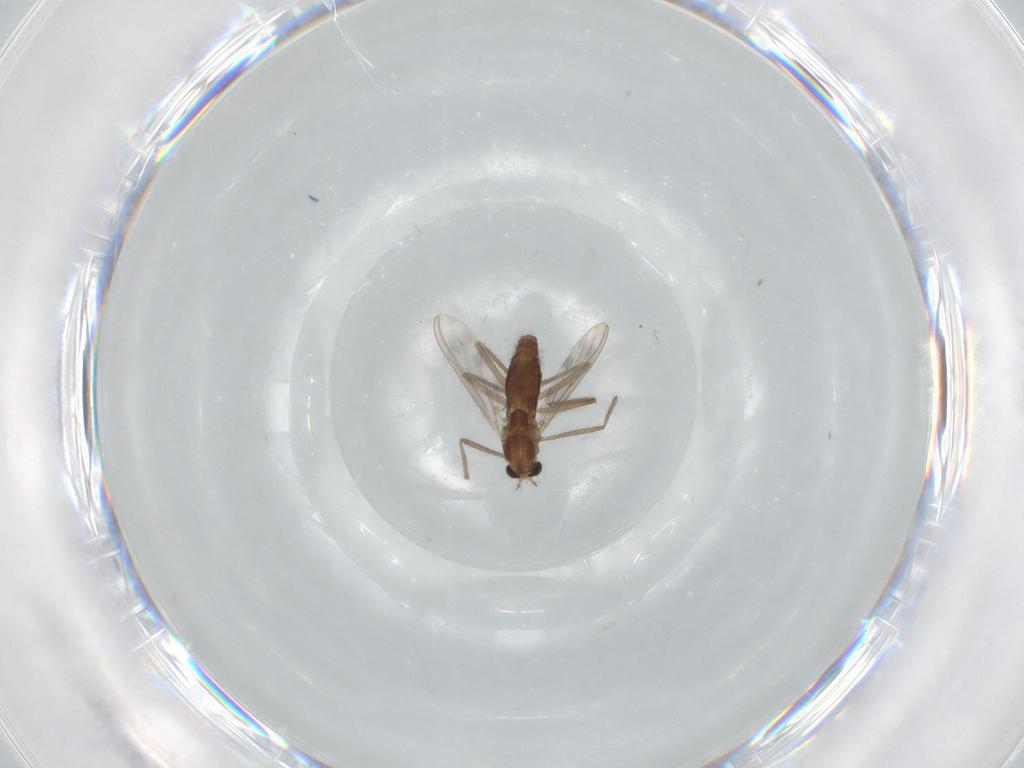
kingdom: Animalia
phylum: Arthropoda
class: Insecta
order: Diptera
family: Chironomidae
